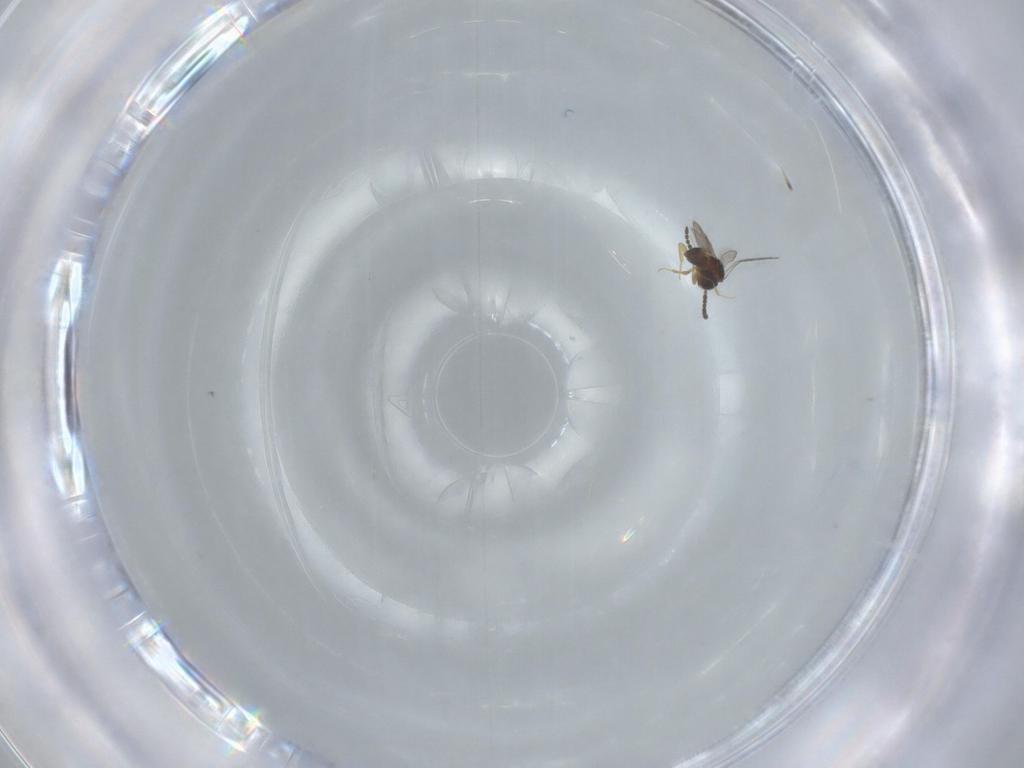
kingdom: Animalia
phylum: Arthropoda
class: Insecta
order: Hymenoptera
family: Aphelinidae
